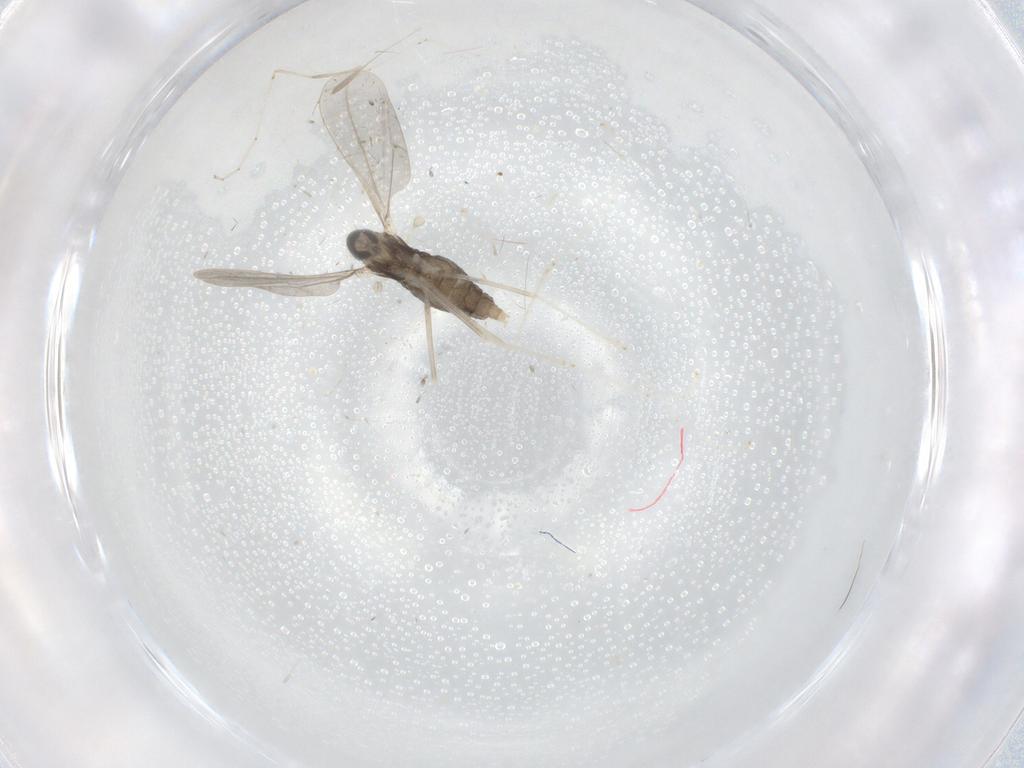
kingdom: Animalia
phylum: Arthropoda
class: Insecta
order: Diptera
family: Cecidomyiidae
